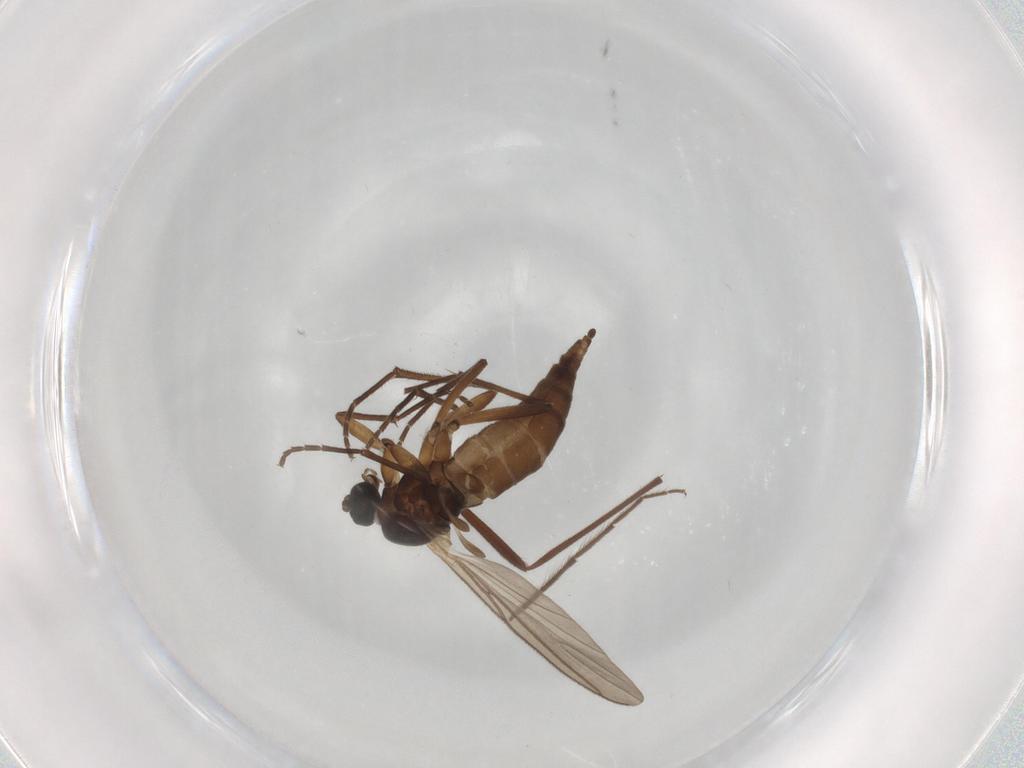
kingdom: Animalia
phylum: Arthropoda
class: Insecta
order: Diptera
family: Sciaridae
